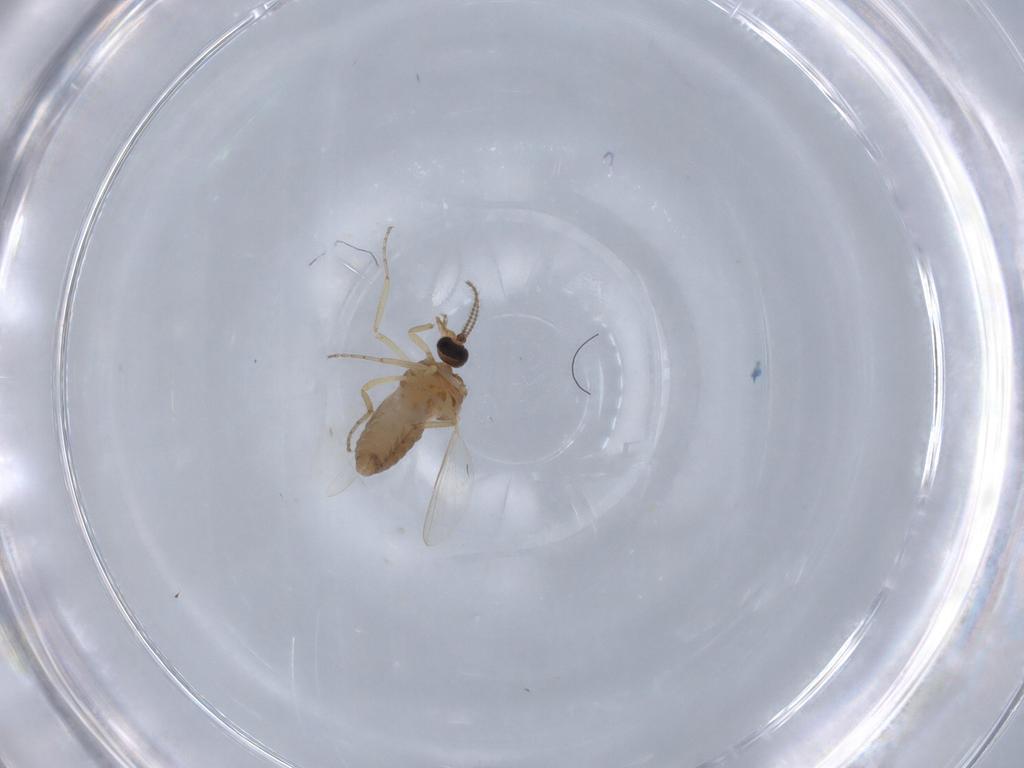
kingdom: Animalia
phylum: Arthropoda
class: Insecta
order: Diptera
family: Ceratopogonidae
